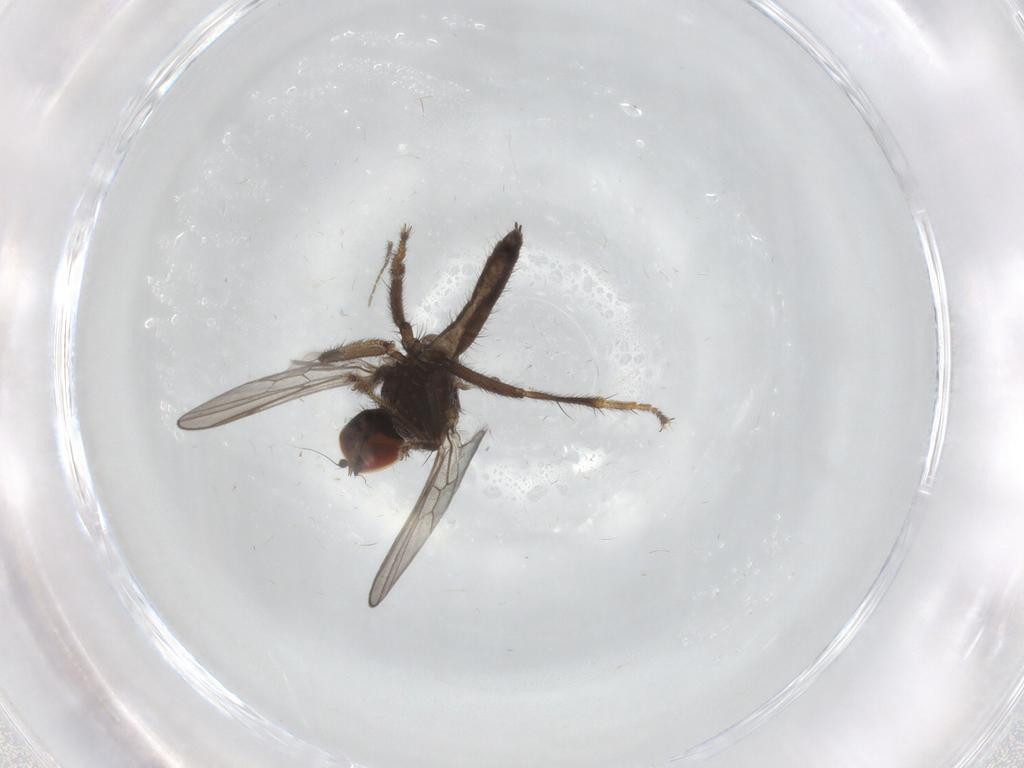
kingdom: Animalia
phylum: Arthropoda
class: Insecta
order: Diptera
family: Hybotidae
